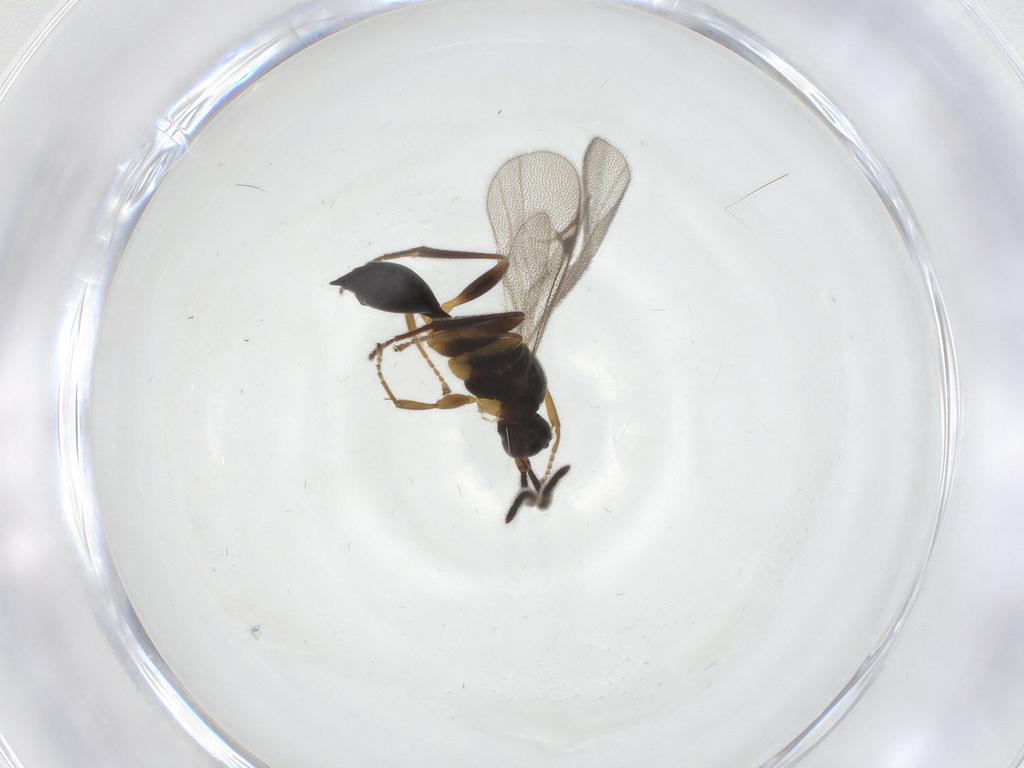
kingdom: Animalia
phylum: Arthropoda
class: Insecta
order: Hymenoptera
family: Proctotrupidae
